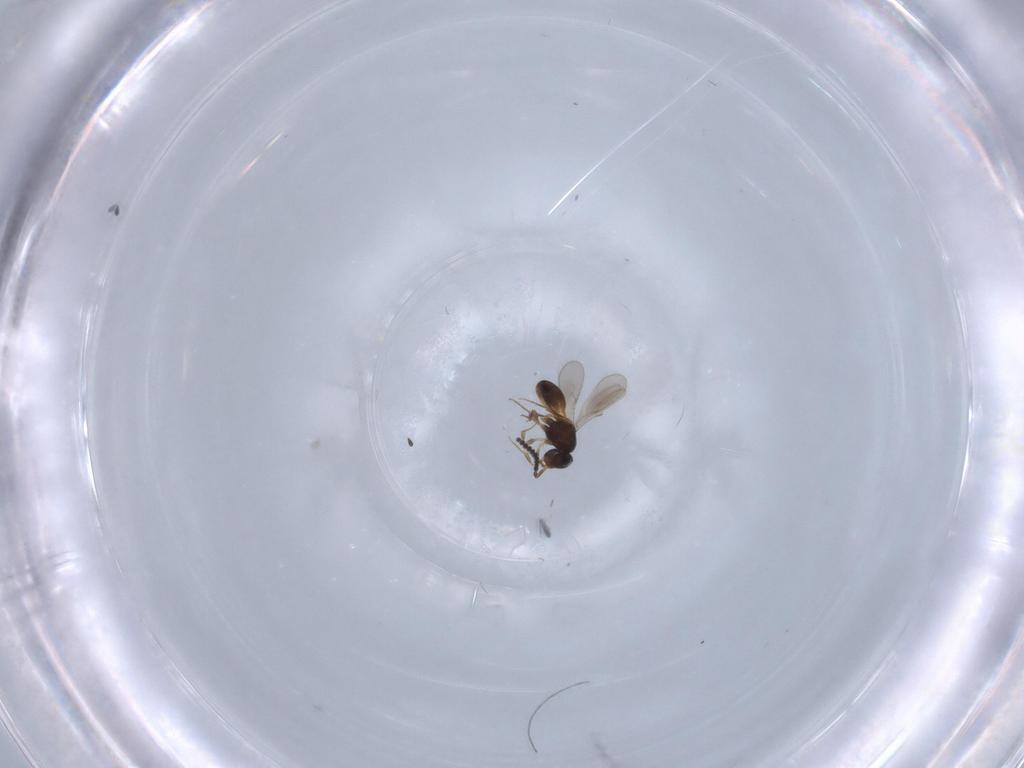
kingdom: Animalia
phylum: Arthropoda
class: Insecta
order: Hymenoptera
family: Scelionidae
